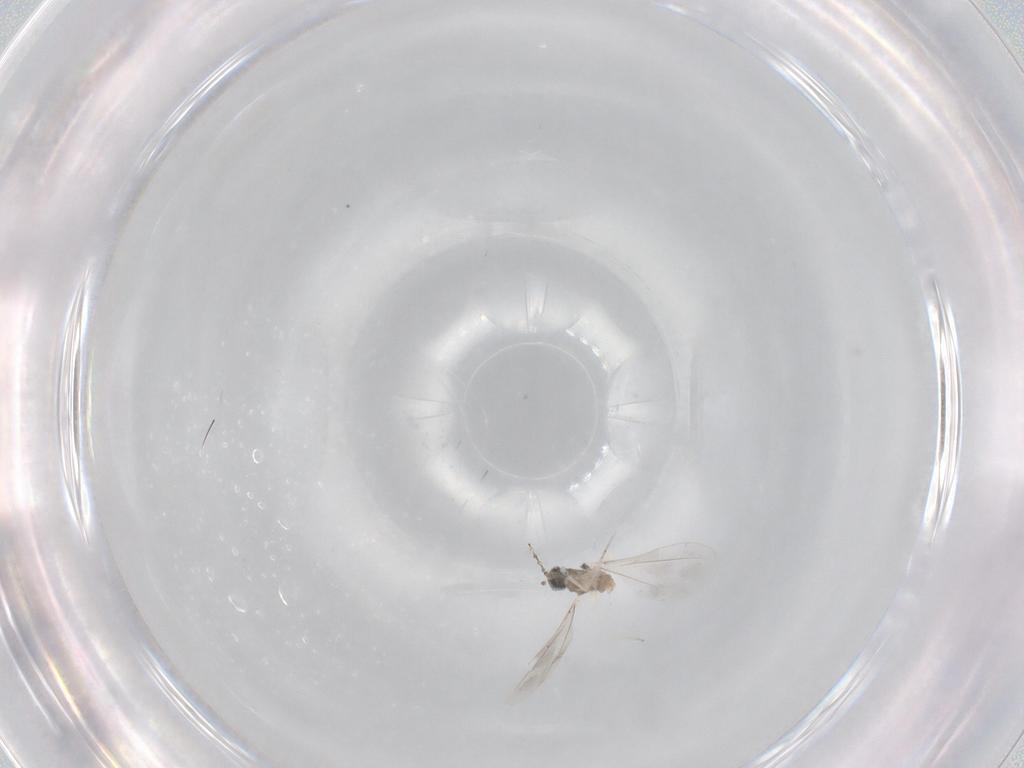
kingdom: Animalia
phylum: Arthropoda
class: Insecta
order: Diptera
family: Cecidomyiidae
